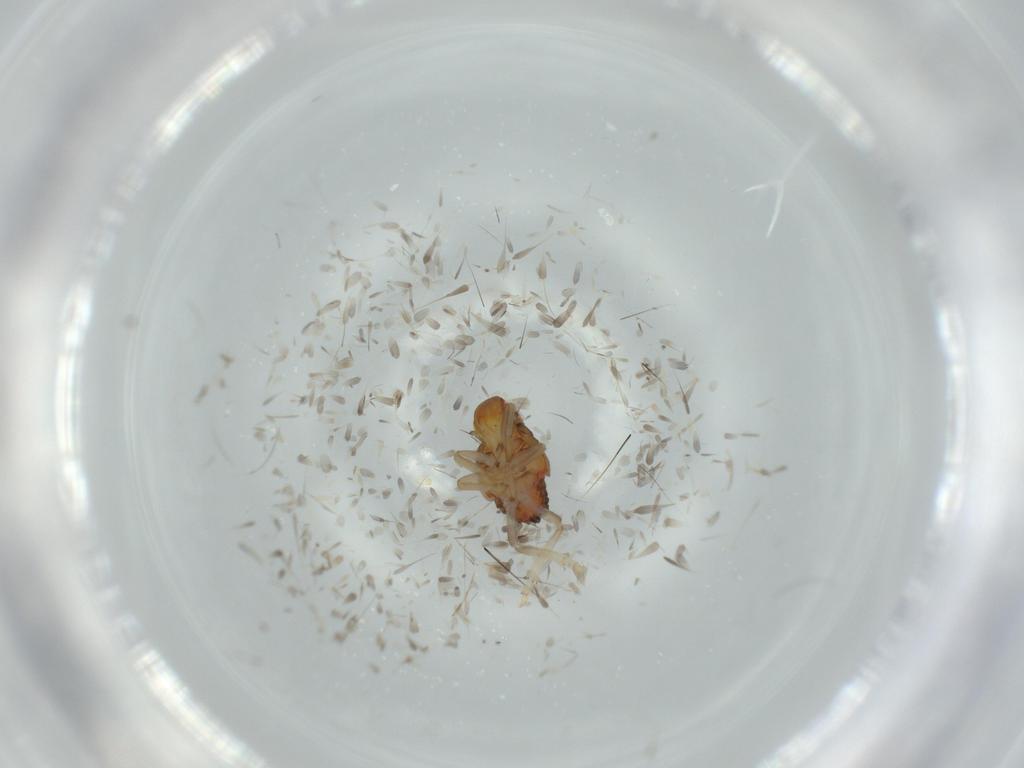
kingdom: Animalia
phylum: Arthropoda
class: Insecta
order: Hemiptera
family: Issidae
